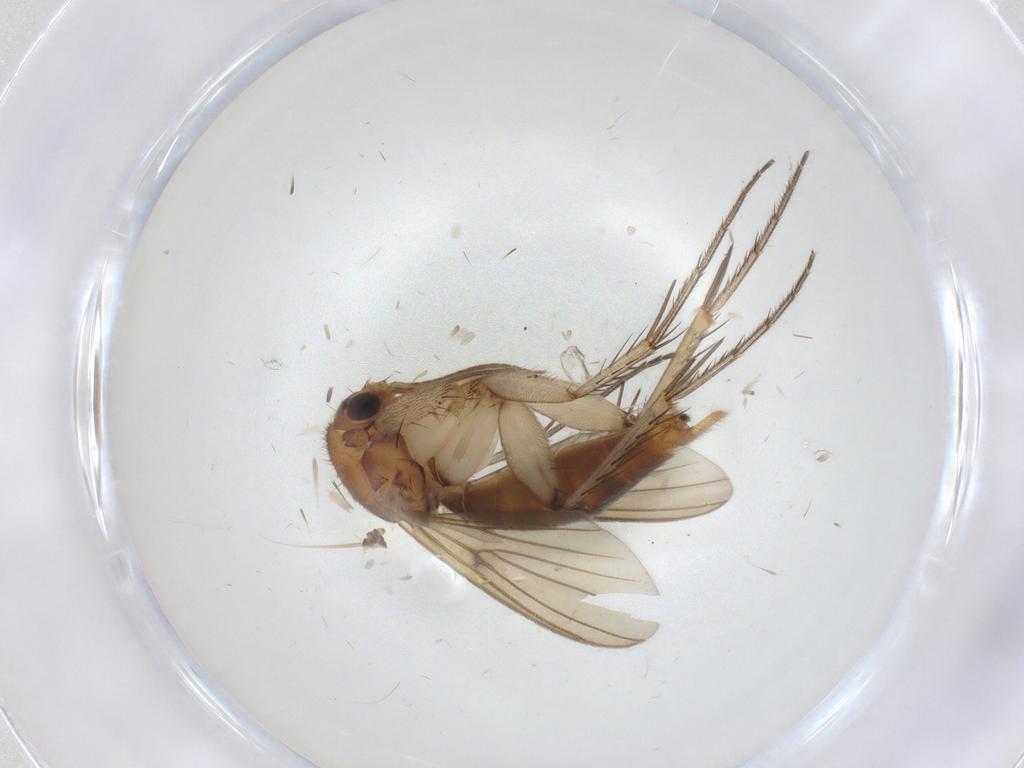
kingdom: Animalia
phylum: Arthropoda
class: Insecta
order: Diptera
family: Mycetophilidae
